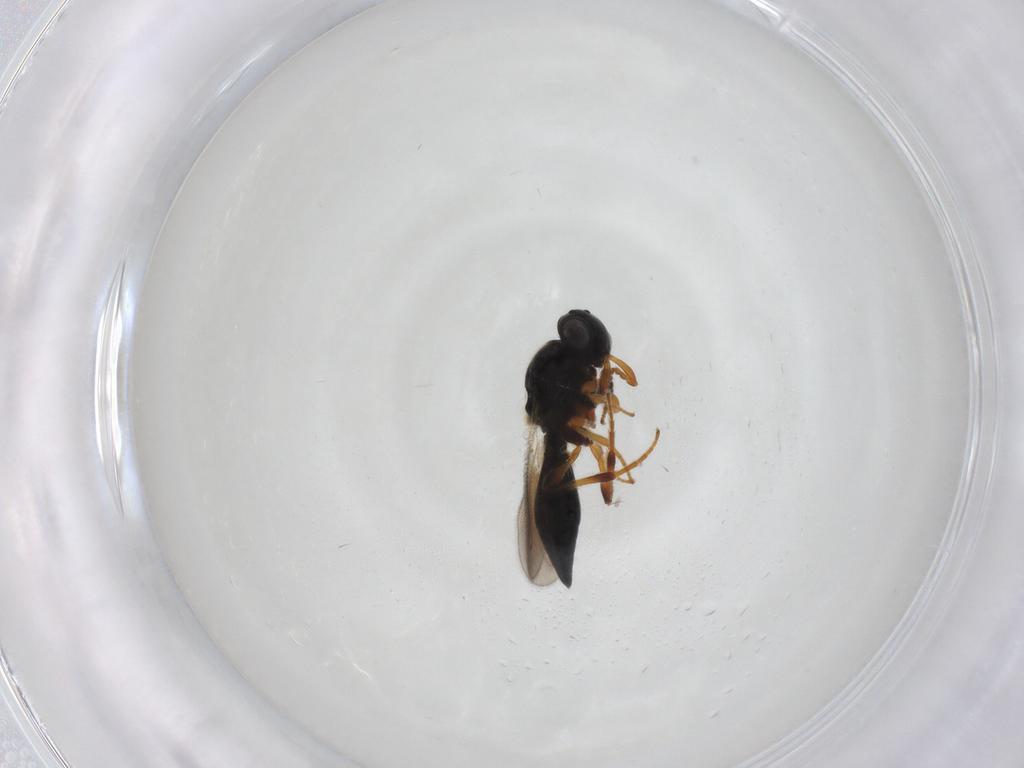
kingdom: Animalia
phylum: Arthropoda
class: Insecta
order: Hymenoptera
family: Platygastridae
